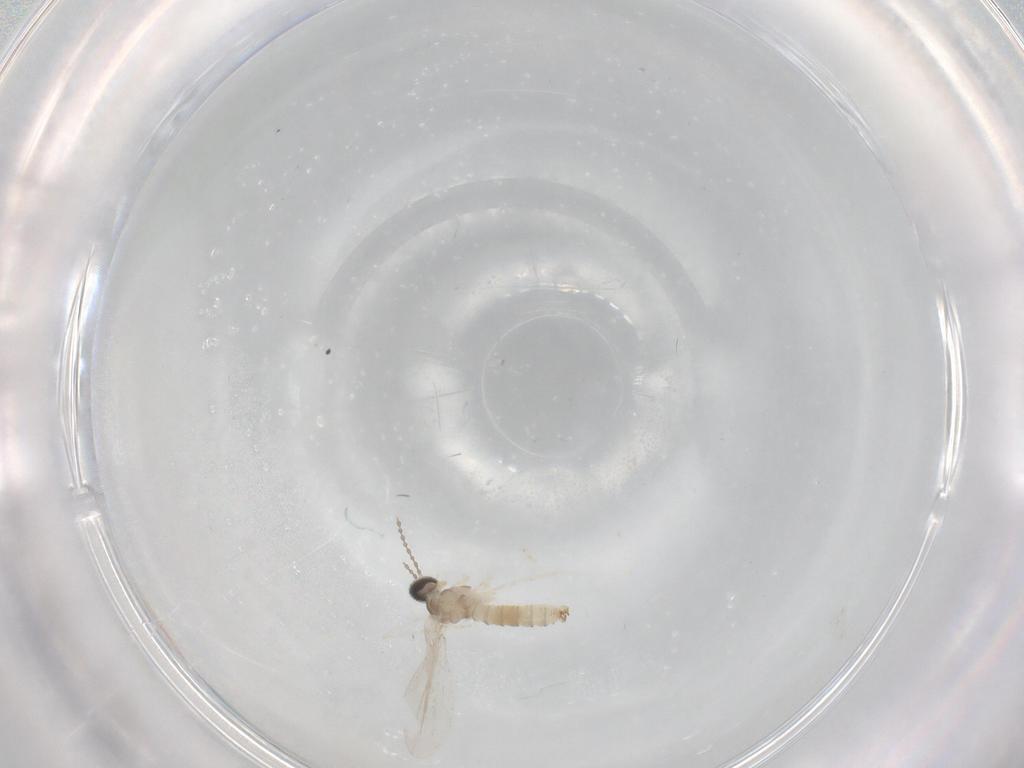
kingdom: Animalia
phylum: Arthropoda
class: Insecta
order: Diptera
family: Cecidomyiidae
